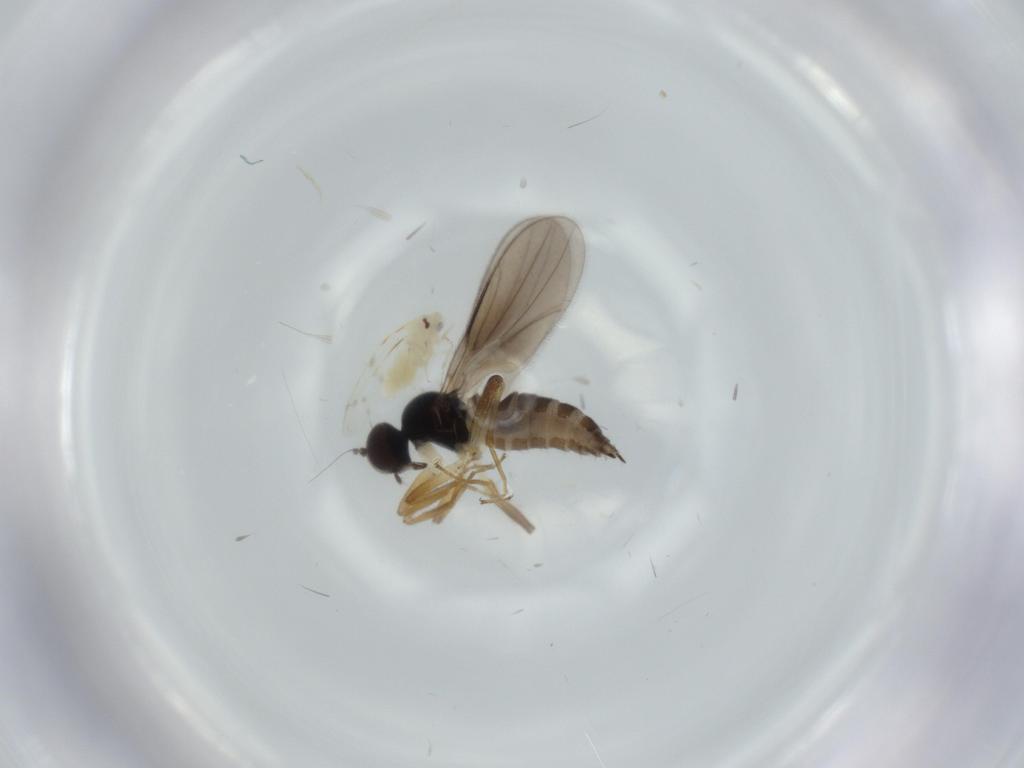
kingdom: Animalia
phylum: Arthropoda
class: Insecta
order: Diptera
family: Hybotidae
